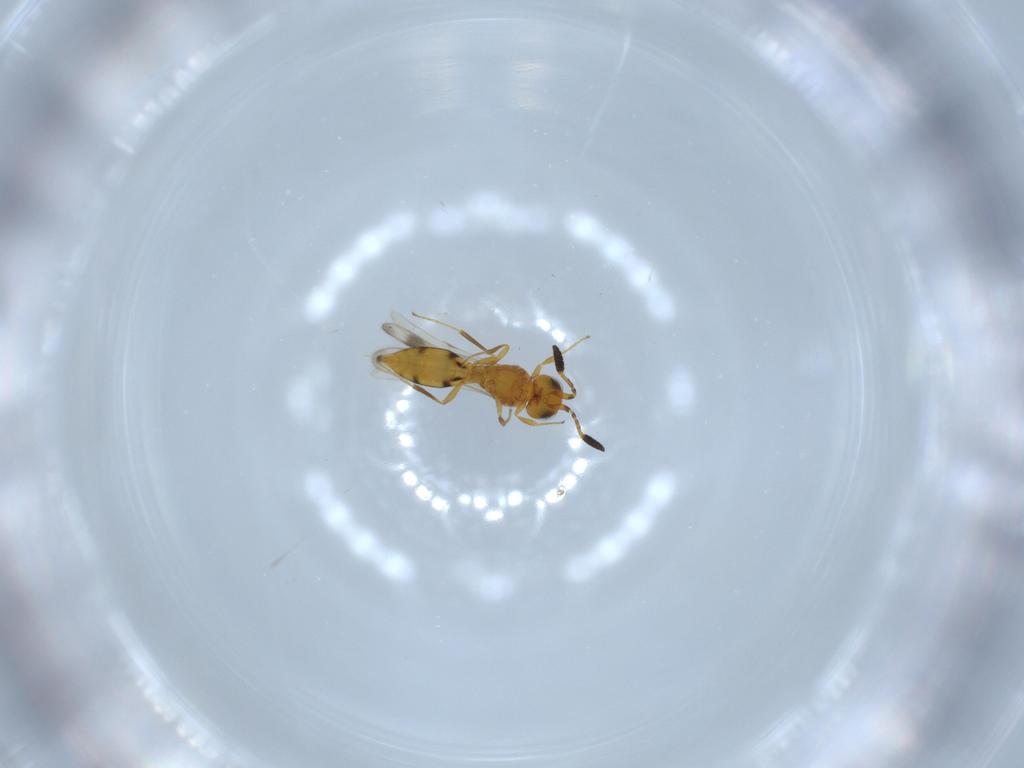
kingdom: Animalia
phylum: Arthropoda
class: Insecta
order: Hymenoptera
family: Scelionidae
